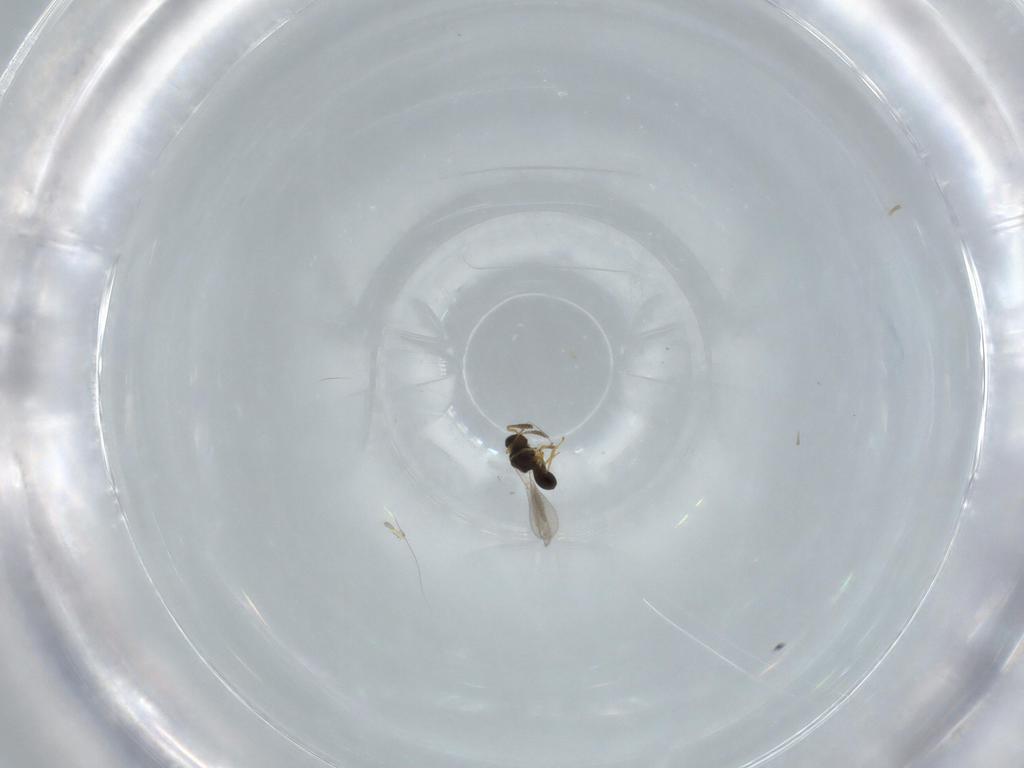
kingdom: Animalia
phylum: Arthropoda
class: Insecta
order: Hymenoptera
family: Platygastridae
